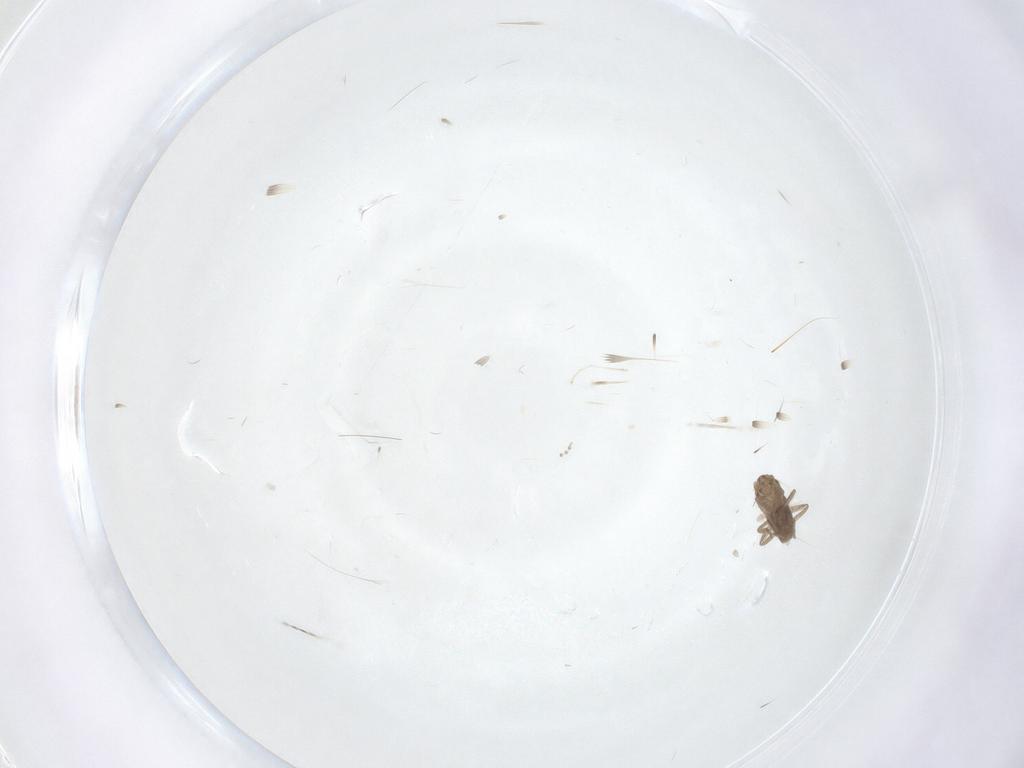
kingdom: Animalia
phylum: Arthropoda
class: Insecta
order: Diptera
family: Cecidomyiidae
